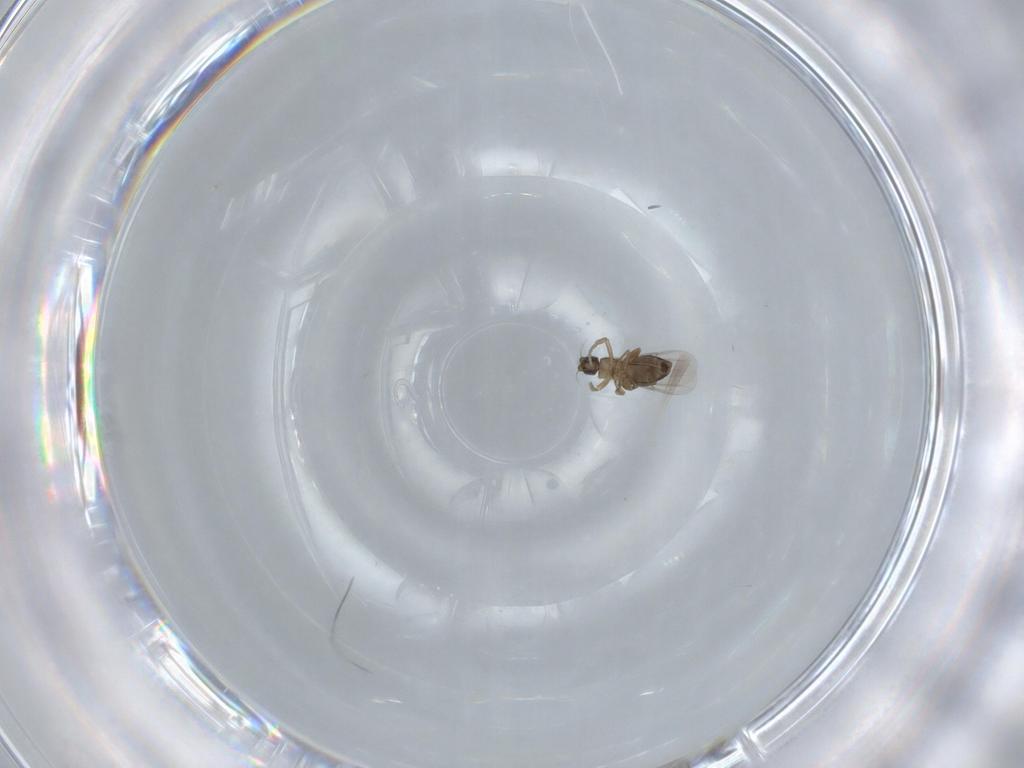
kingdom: Animalia
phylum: Arthropoda
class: Insecta
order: Diptera
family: Phoridae
